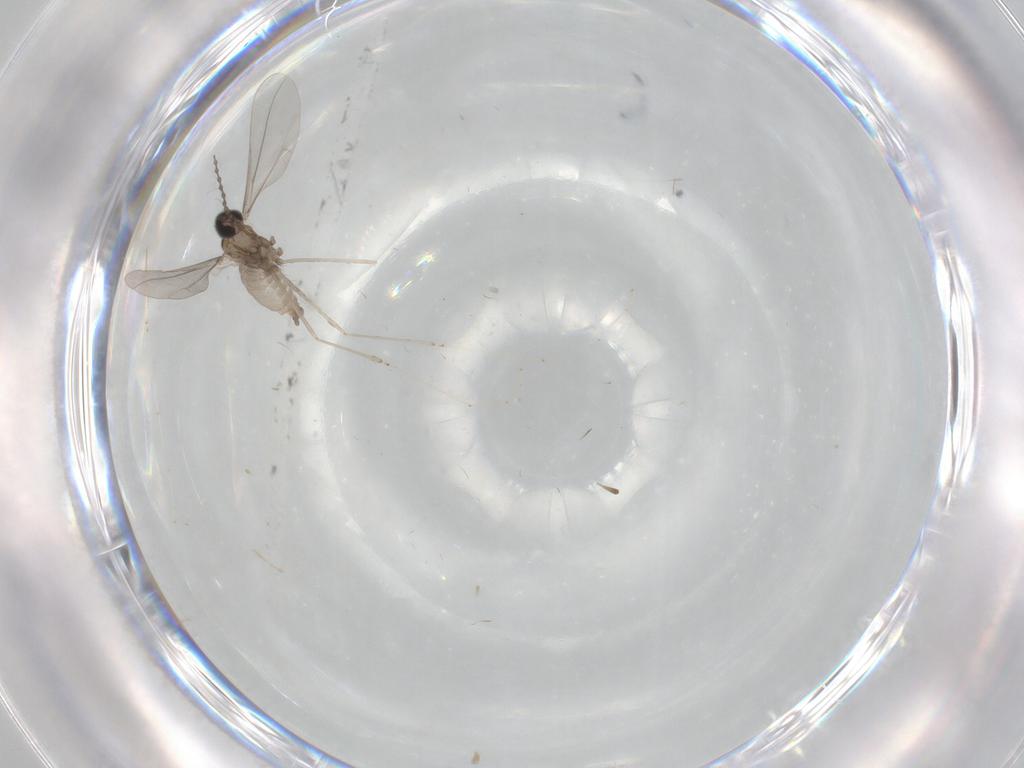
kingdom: Animalia
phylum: Arthropoda
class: Insecta
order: Diptera
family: Cecidomyiidae
